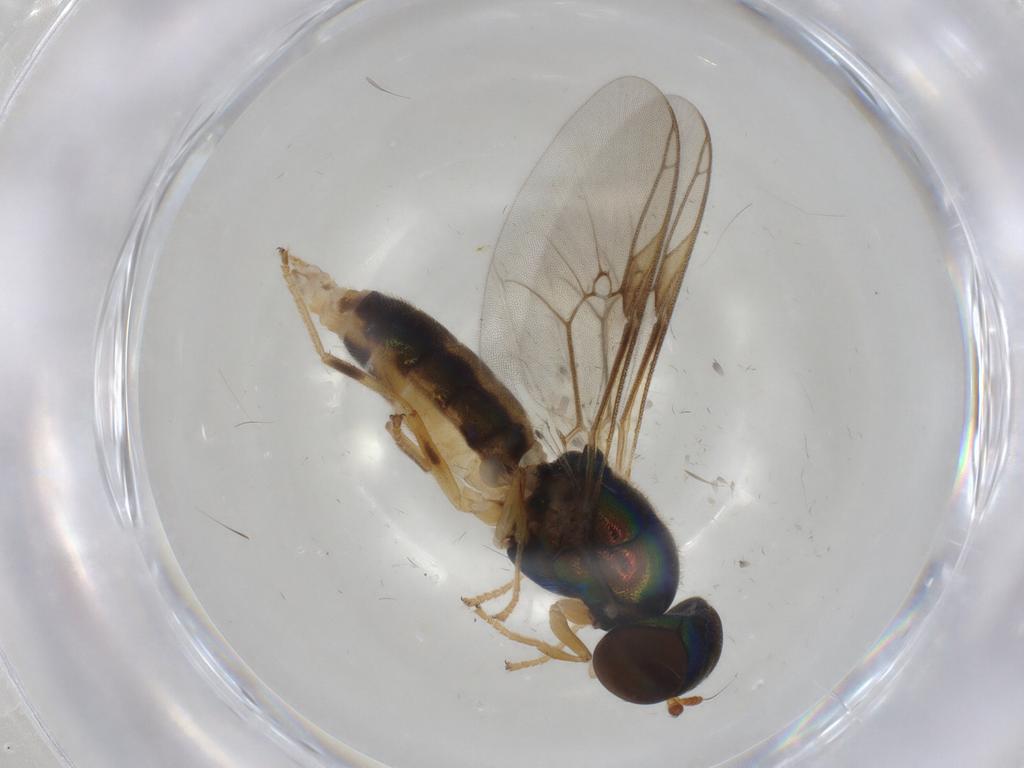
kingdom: Animalia
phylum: Arthropoda
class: Insecta
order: Diptera
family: Cecidomyiidae
